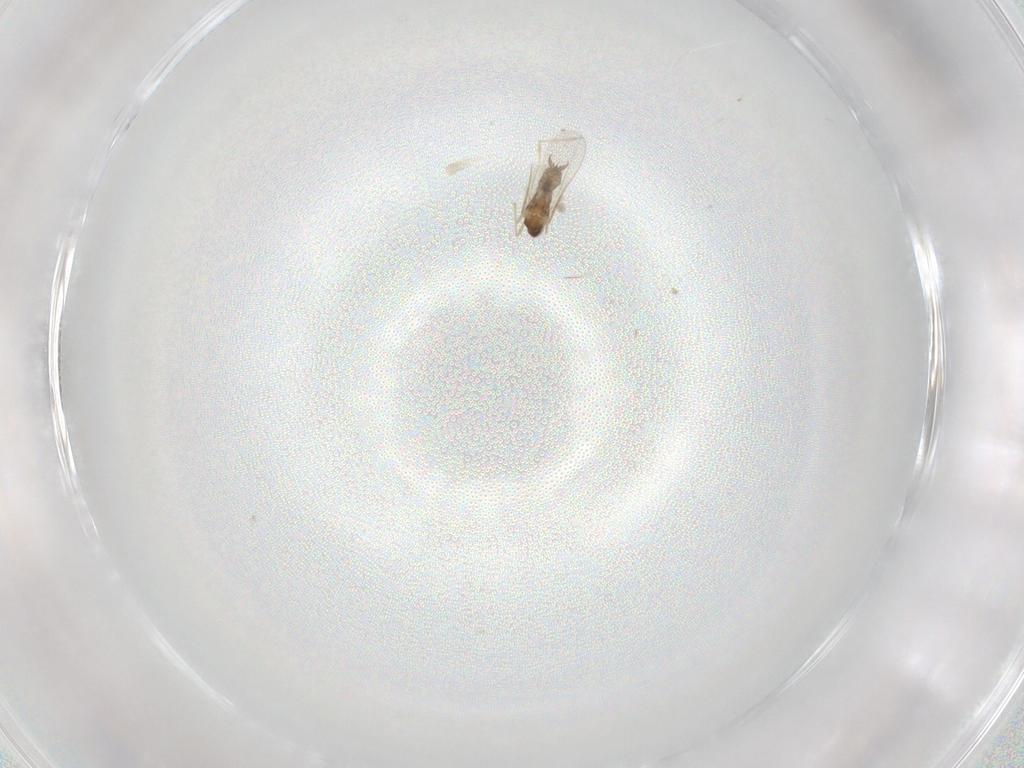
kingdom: Animalia
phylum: Arthropoda
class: Insecta
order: Diptera
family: Cecidomyiidae
